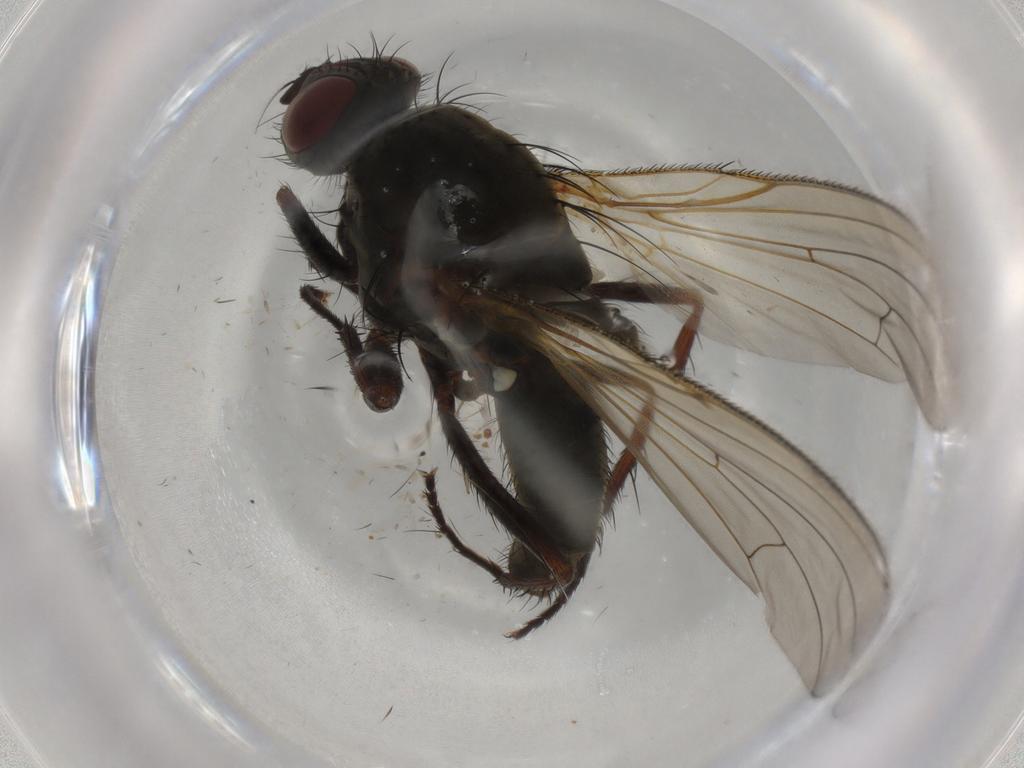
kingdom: Animalia
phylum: Arthropoda
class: Insecta
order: Diptera
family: Anthomyiidae
